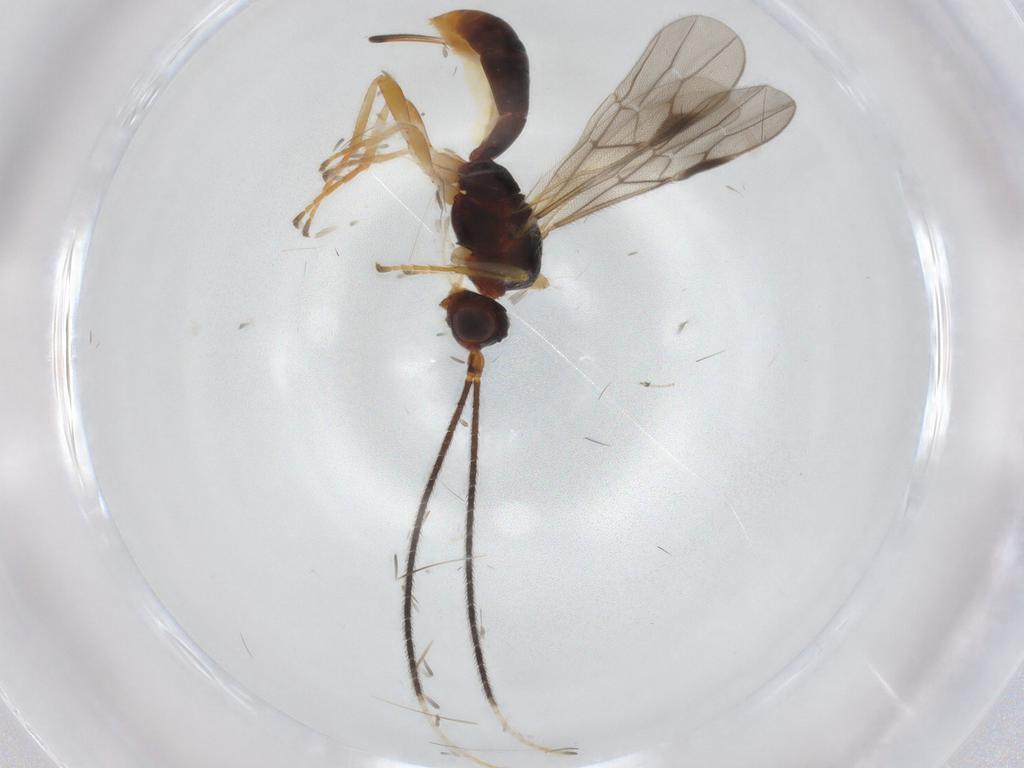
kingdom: Animalia
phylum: Arthropoda
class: Insecta
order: Hymenoptera
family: Braconidae
